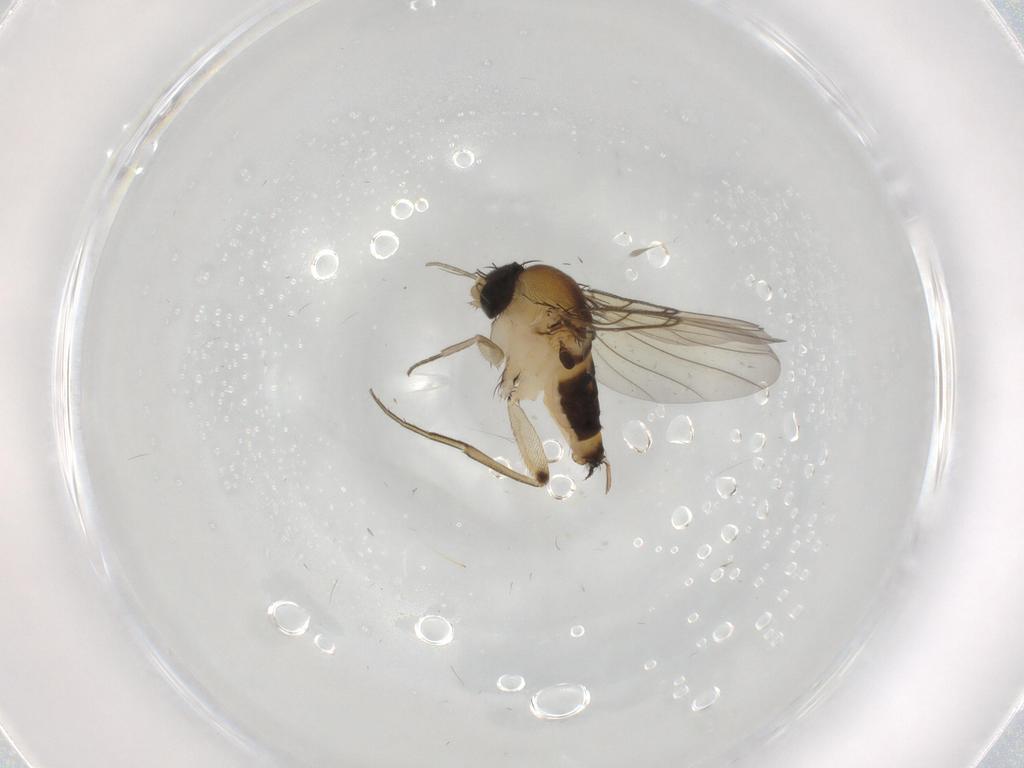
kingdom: Animalia
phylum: Arthropoda
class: Insecta
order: Diptera
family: Phoridae
